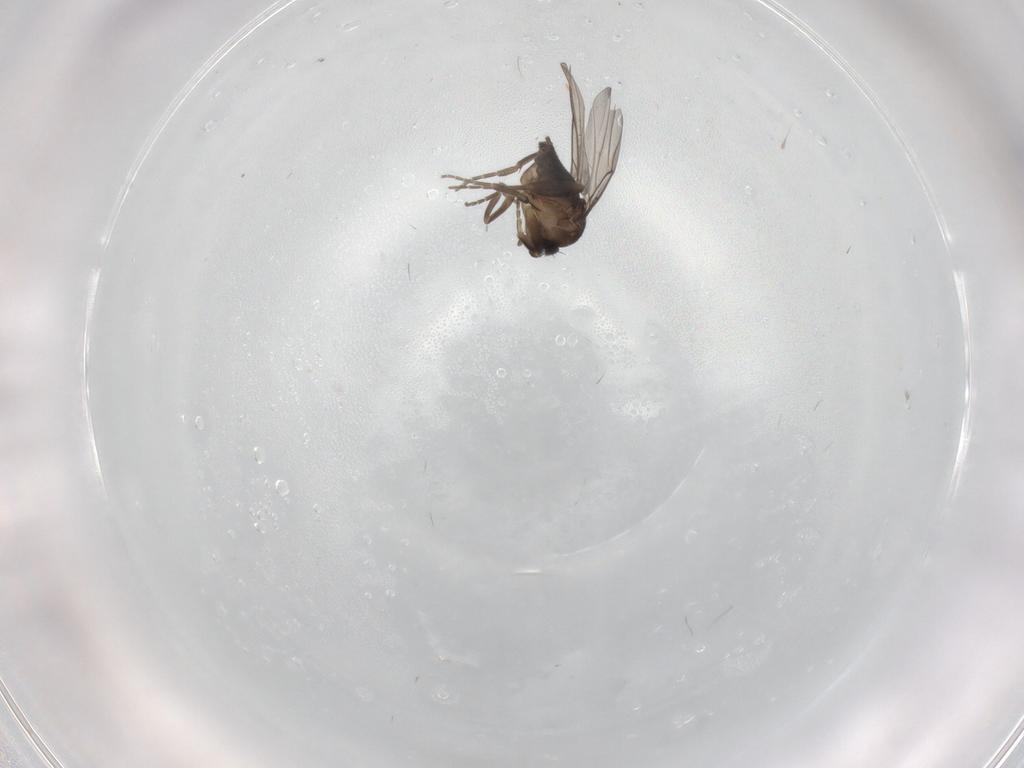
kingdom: Animalia
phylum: Arthropoda
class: Insecta
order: Diptera
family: Phoridae
